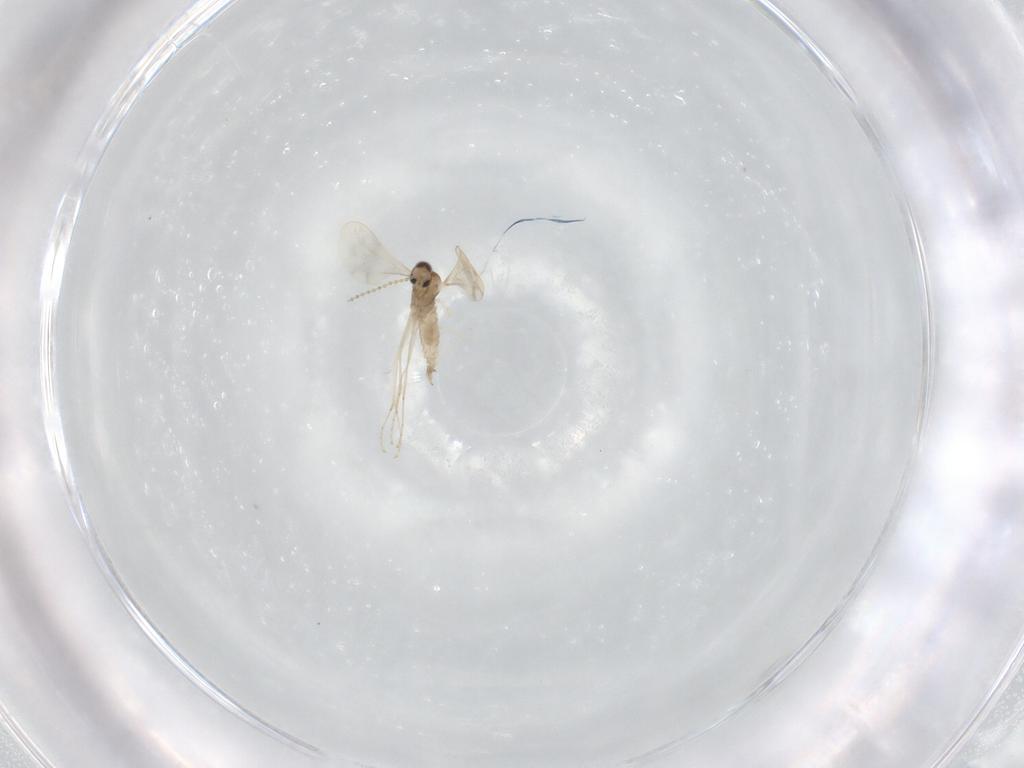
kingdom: Animalia
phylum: Arthropoda
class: Insecta
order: Diptera
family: Cecidomyiidae
